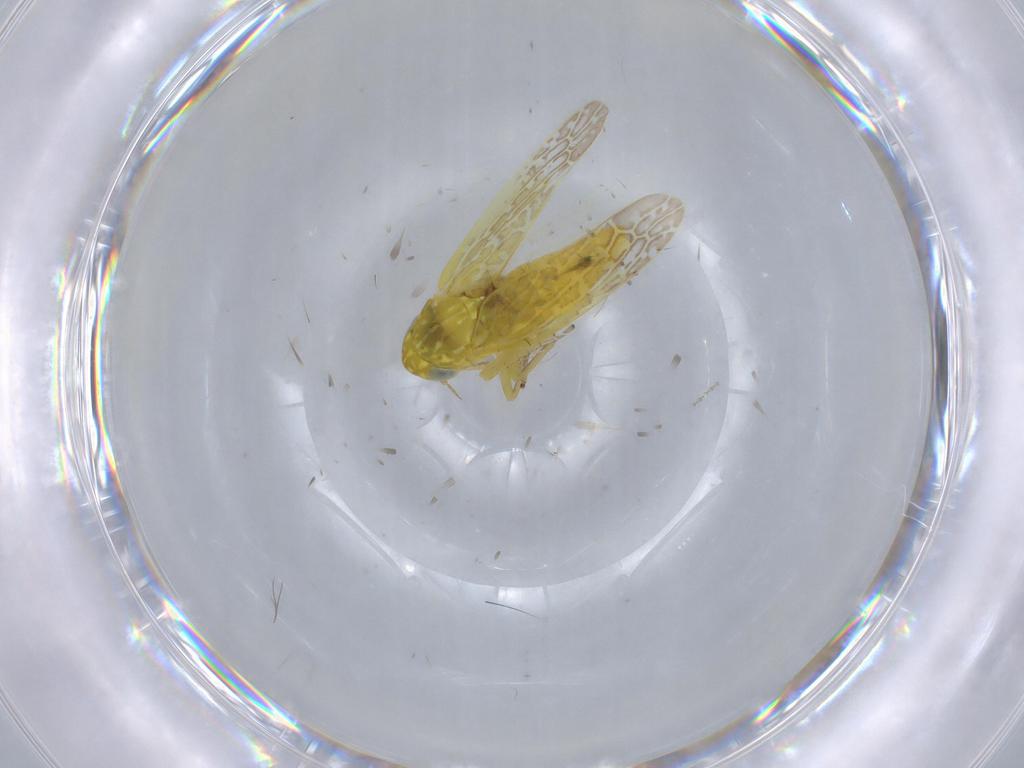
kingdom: Animalia
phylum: Arthropoda
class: Insecta
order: Hemiptera
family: Cicadellidae
